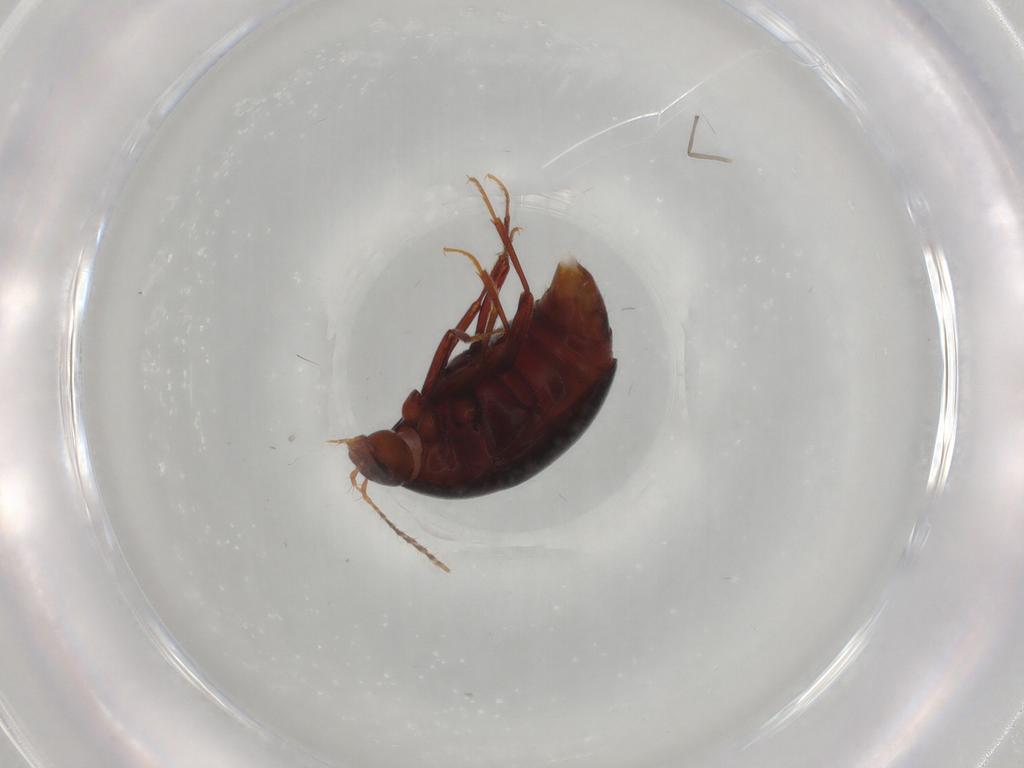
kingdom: Animalia
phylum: Arthropoda
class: Insecta
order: Coleoptera
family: Staphylinidae
